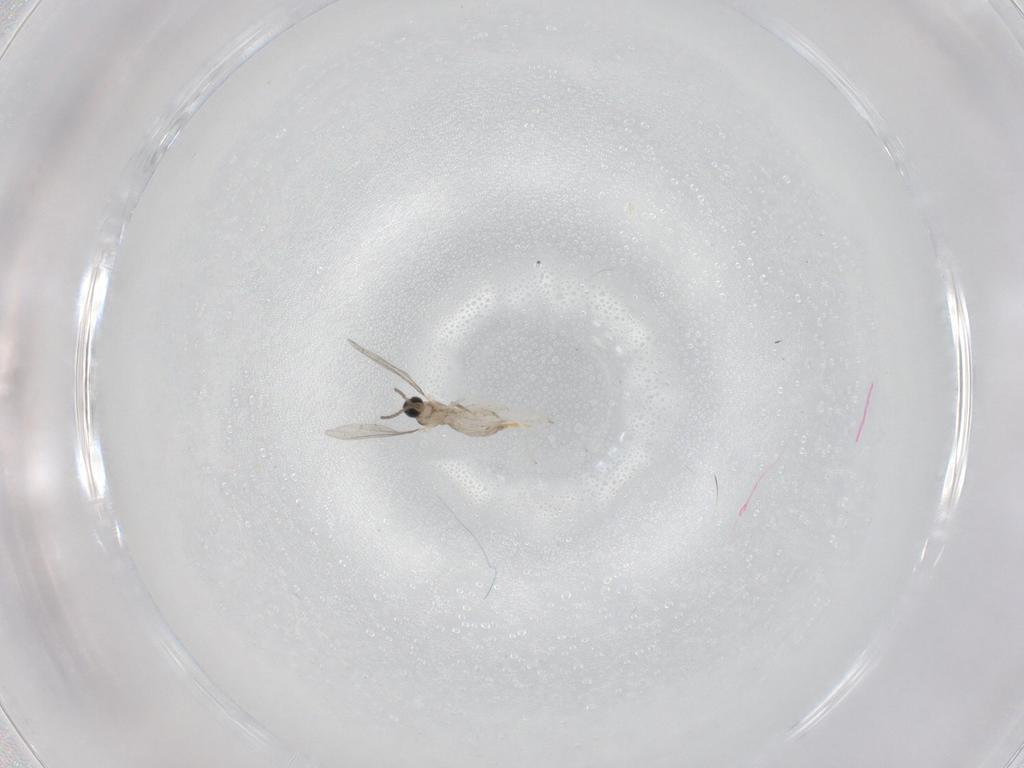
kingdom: Animalia
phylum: Arthropoda
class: Insecta
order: Diptera
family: Cecidomyiidae
